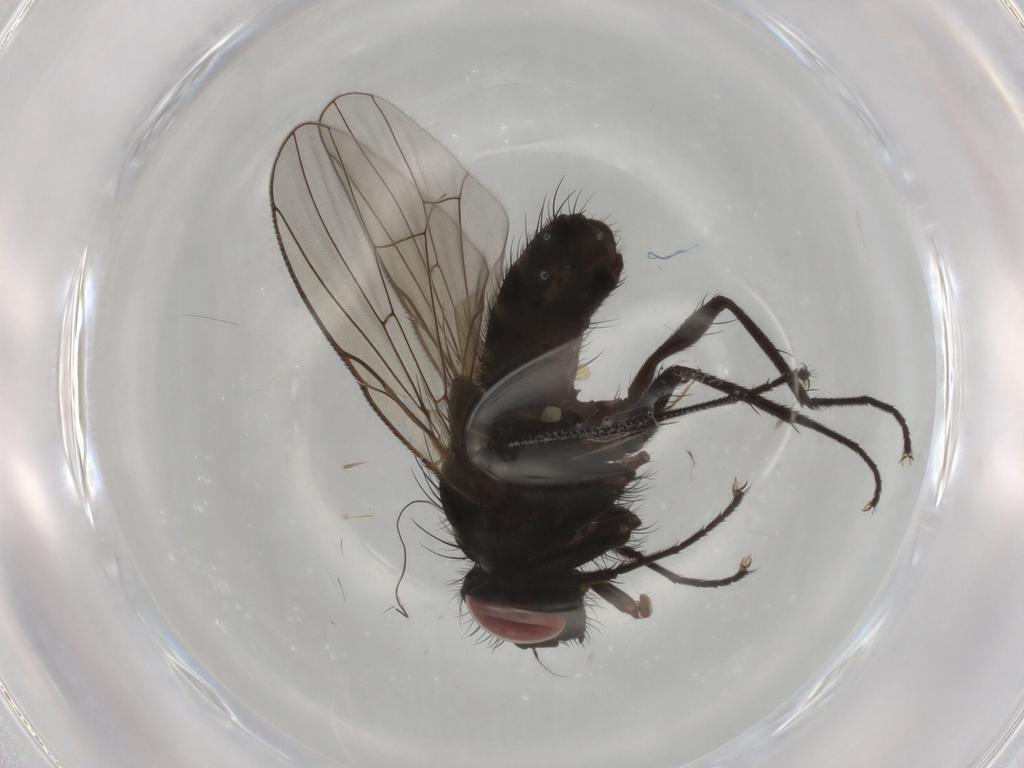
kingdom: Animalia
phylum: Arthropoda
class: Insecta
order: Diptera
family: Muscidae
